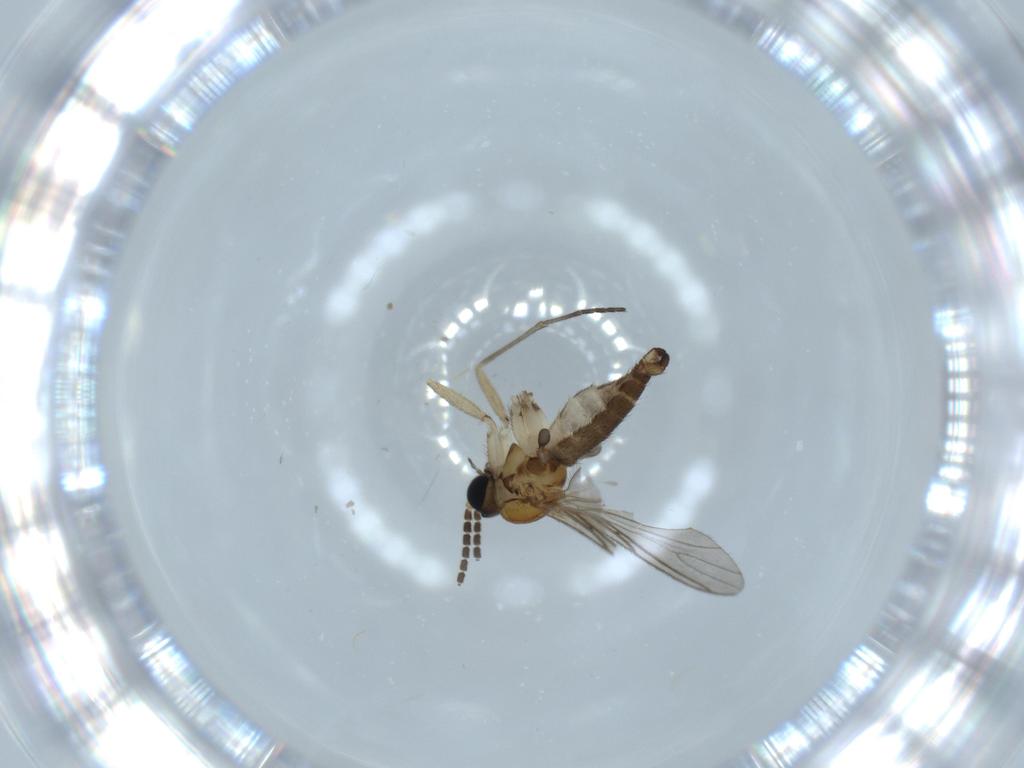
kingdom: Animalia
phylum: Arthropoda
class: Insecta
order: Diptera
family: Sciaridae
